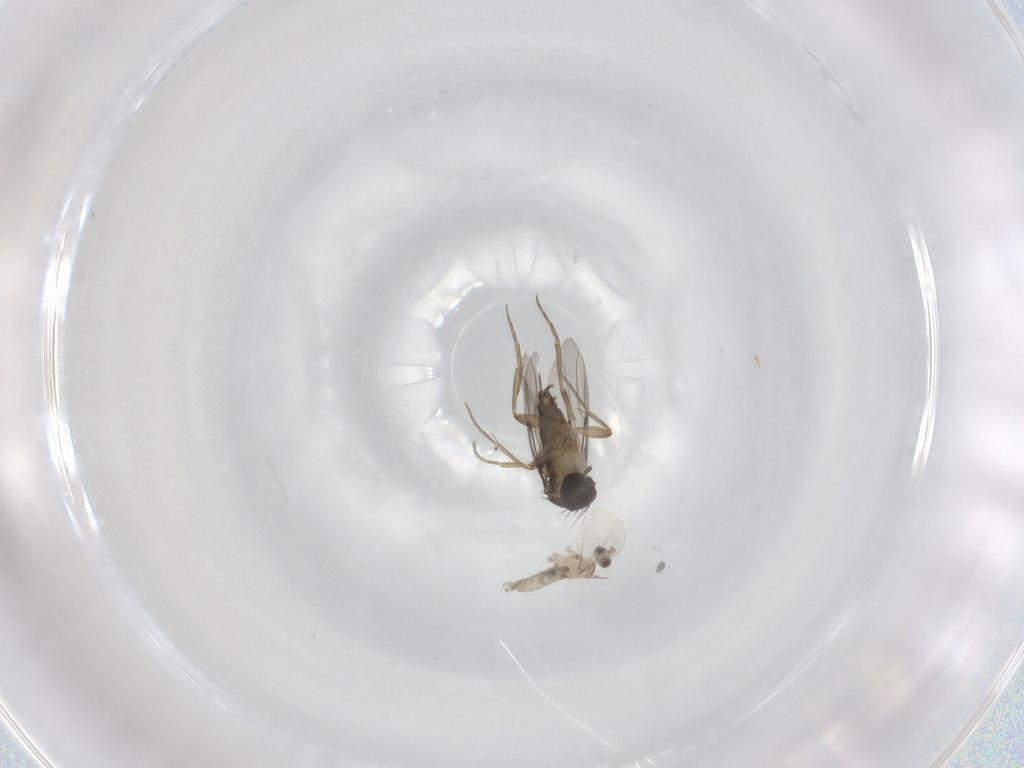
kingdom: Animalia
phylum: Arthropoda
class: Insecta
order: Diptera
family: Phoridae
